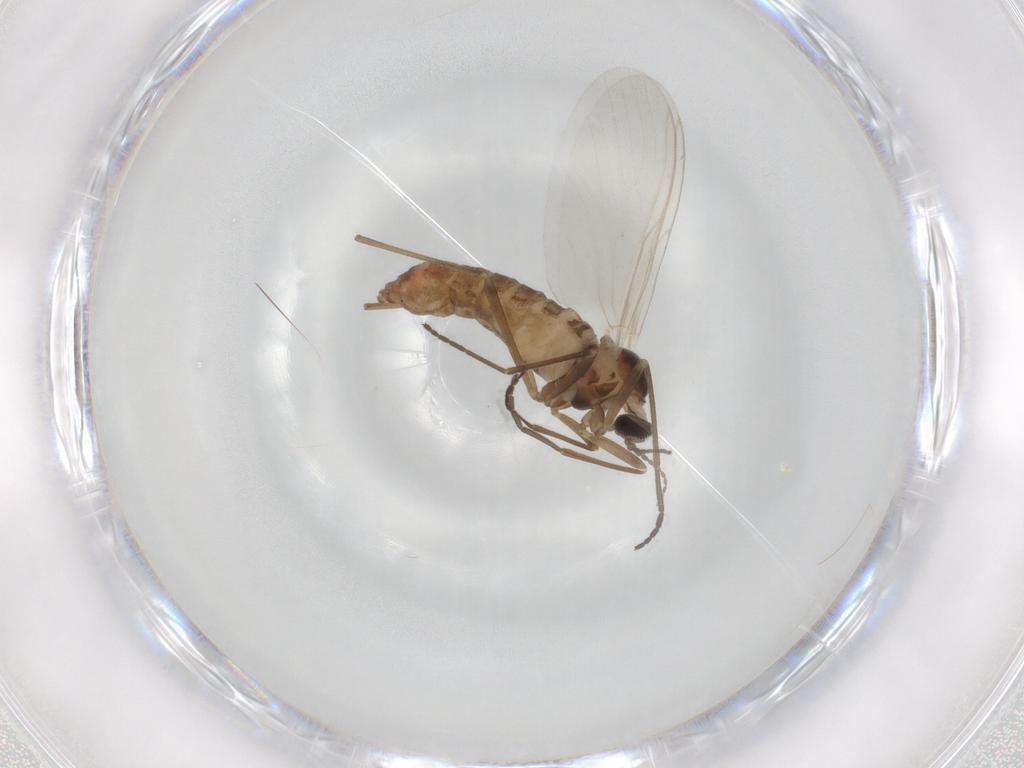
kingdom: Animalia
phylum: Arthropoda
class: Insecta
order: Diptera
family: Cecidomyiidae
